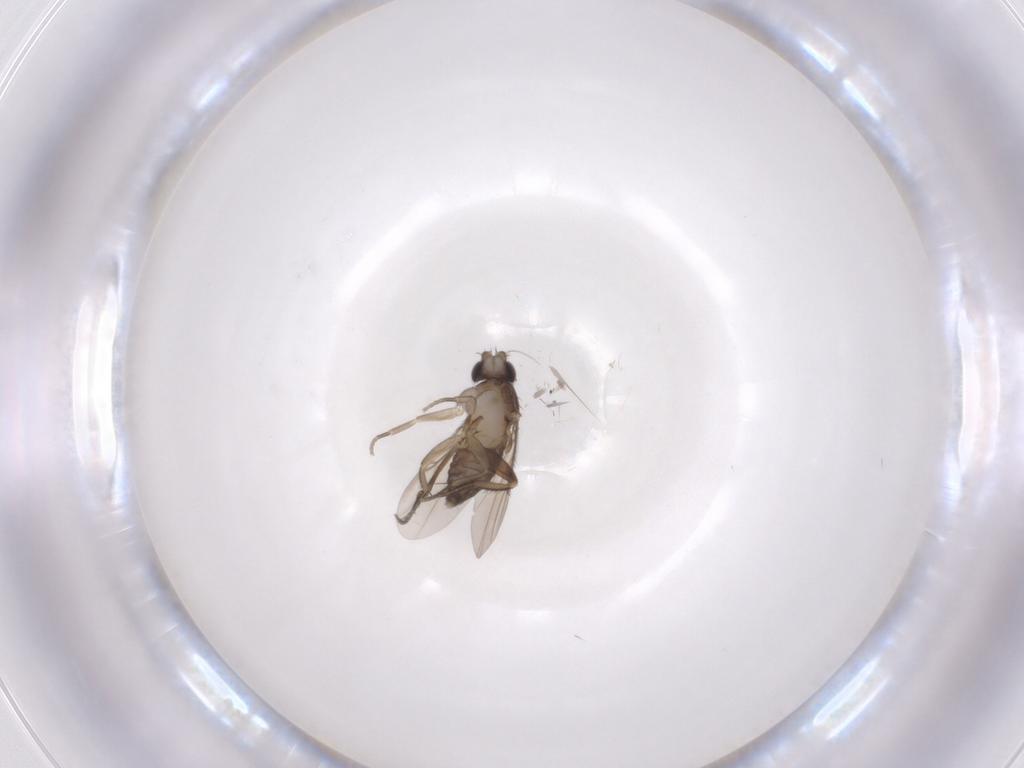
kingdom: Animalia
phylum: Arthropoda
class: Insecta
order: Diptera
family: Phoridae
